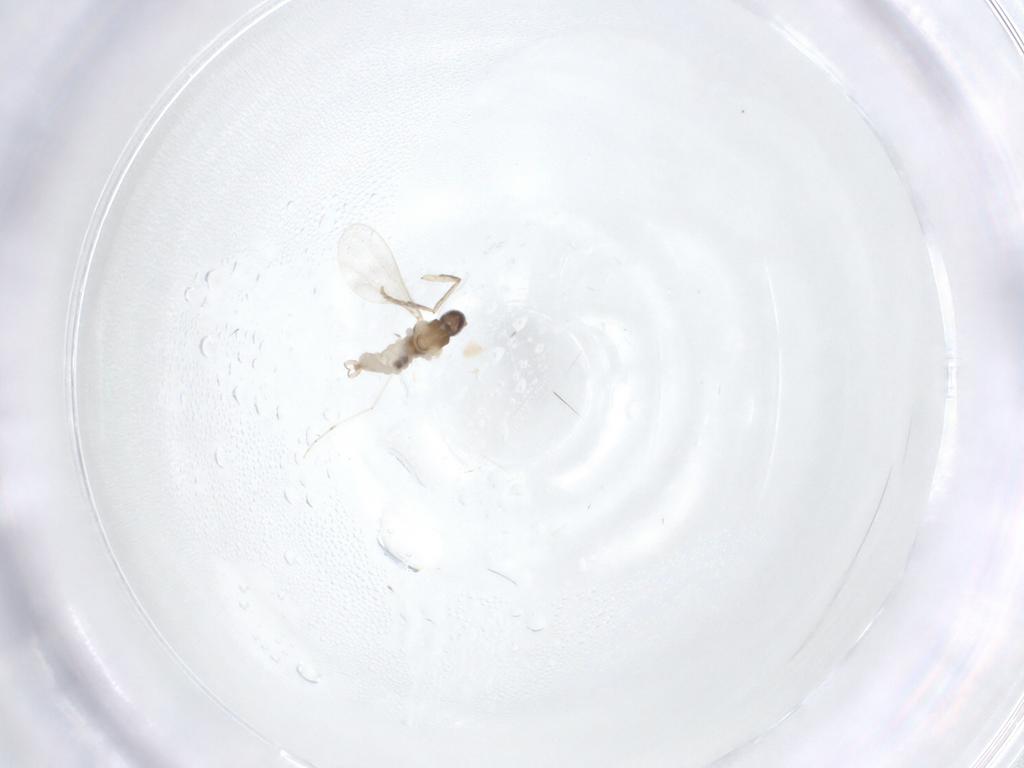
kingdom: Animalia
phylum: Arthropoda
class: Insecta
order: Diptera
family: Cecidomyiidae
